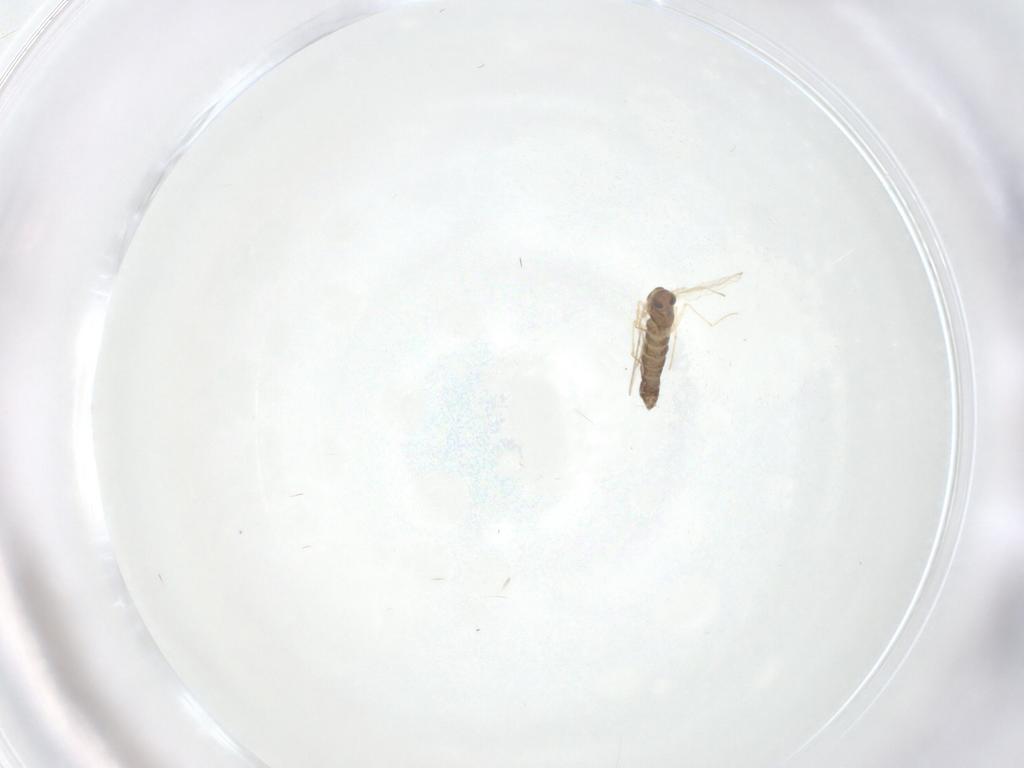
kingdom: Animalia
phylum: Arthropoda
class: Insecta
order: Diptera
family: Chironomidae
